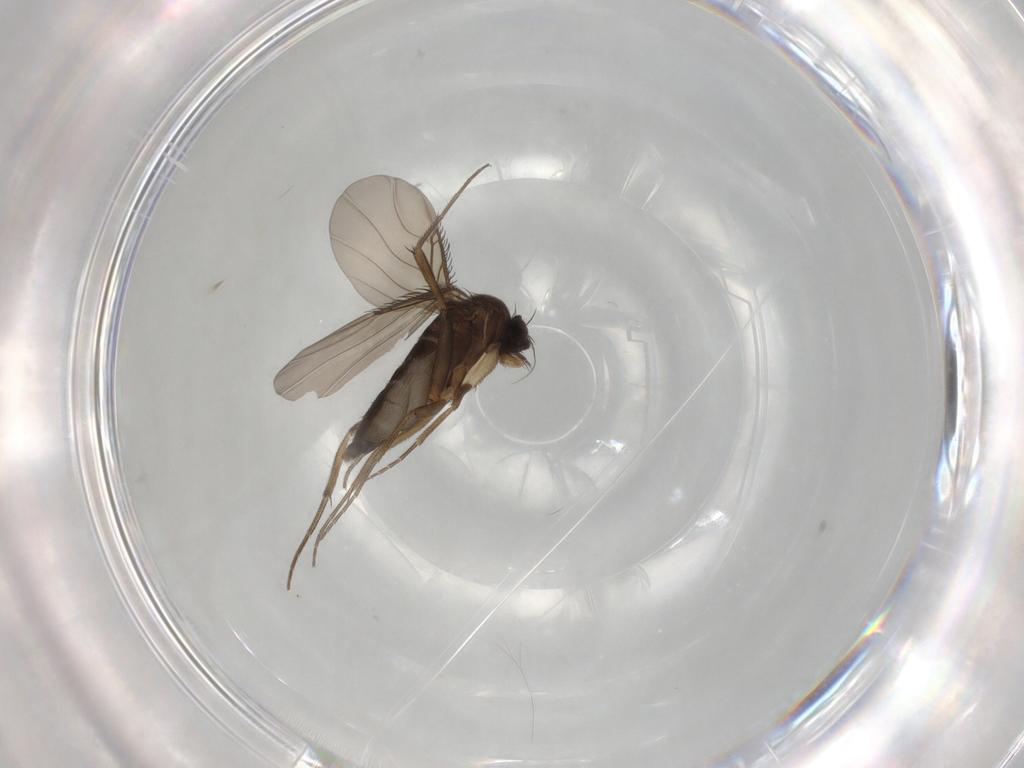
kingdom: Animalia
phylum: Arthropoda
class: Insecta
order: Diptera
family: Phoridae
